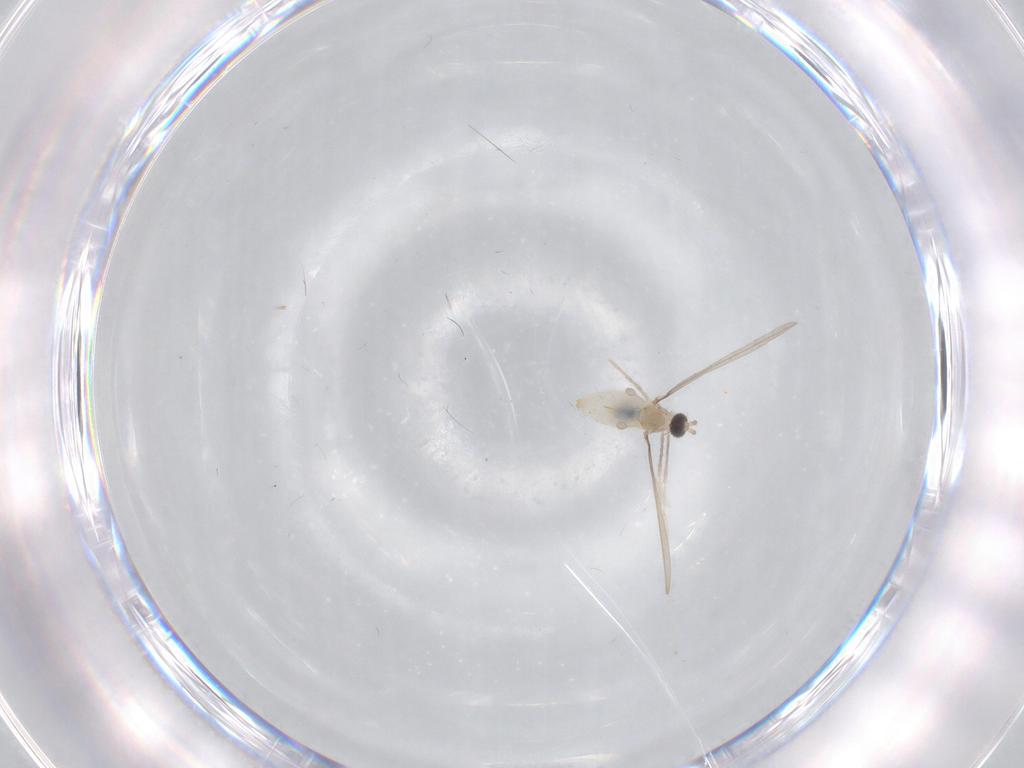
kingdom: Animalia
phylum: Arthropoda
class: Insecta
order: Diptera
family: Cecidomyiidae
